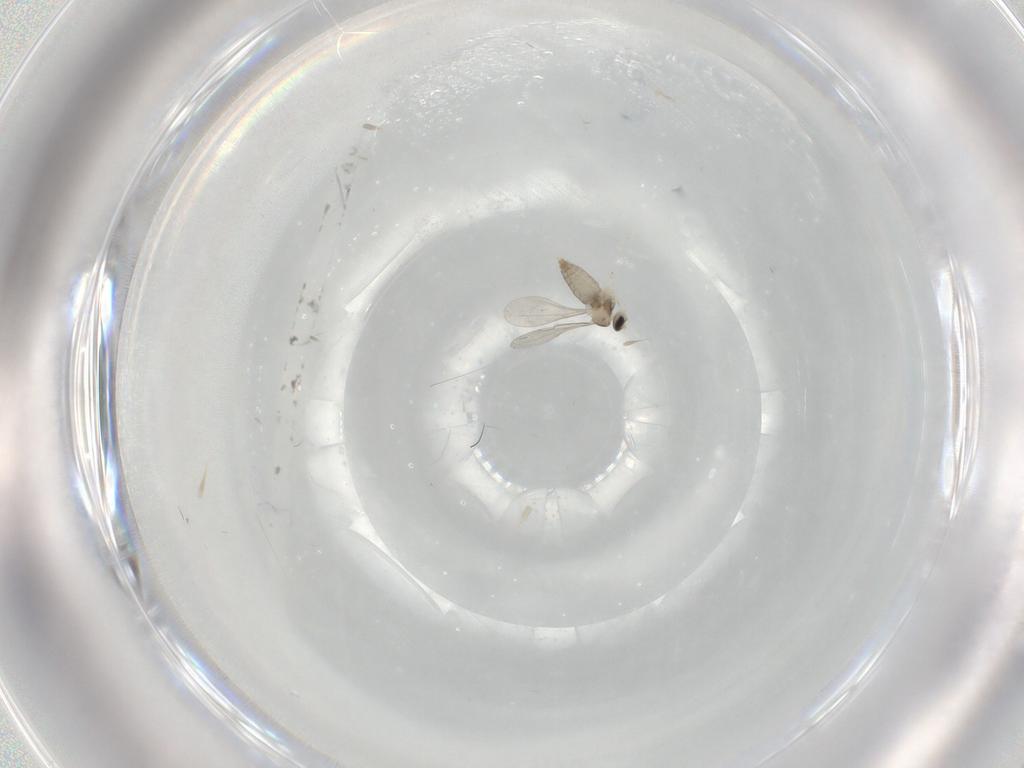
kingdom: Animalia
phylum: Arthropoda
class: Insecta
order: Diptera
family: Cecidomyiidae
